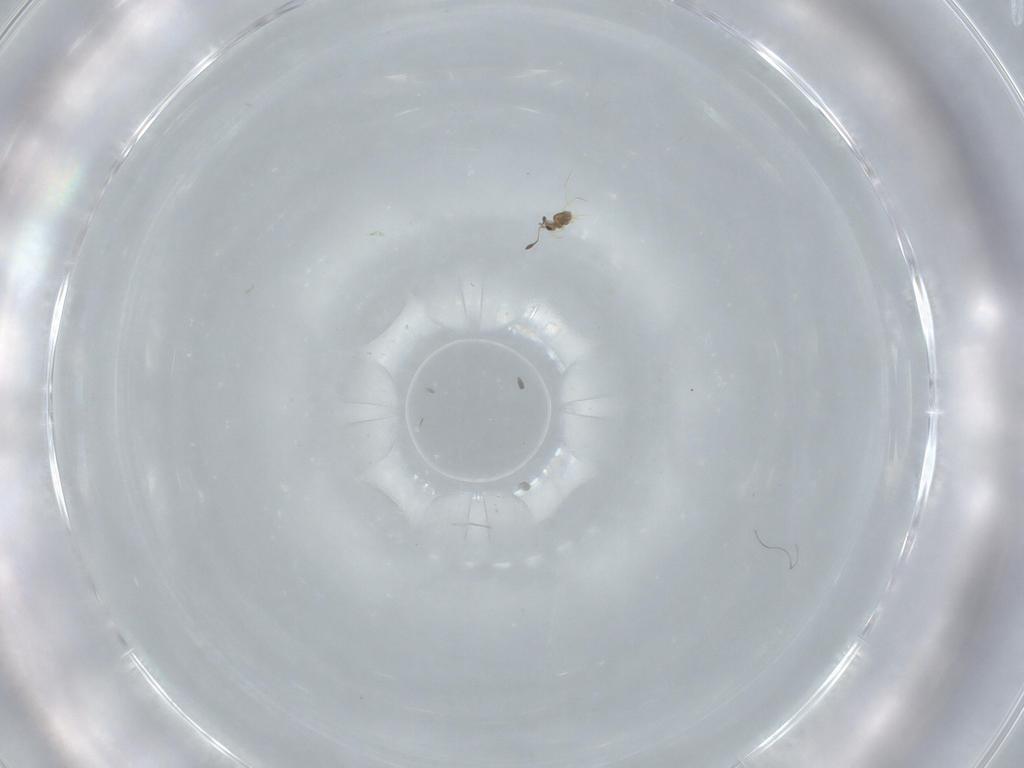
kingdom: Animalia
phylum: Arthropoda
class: Insecta
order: Hymenoptera
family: Mymarommatidae
